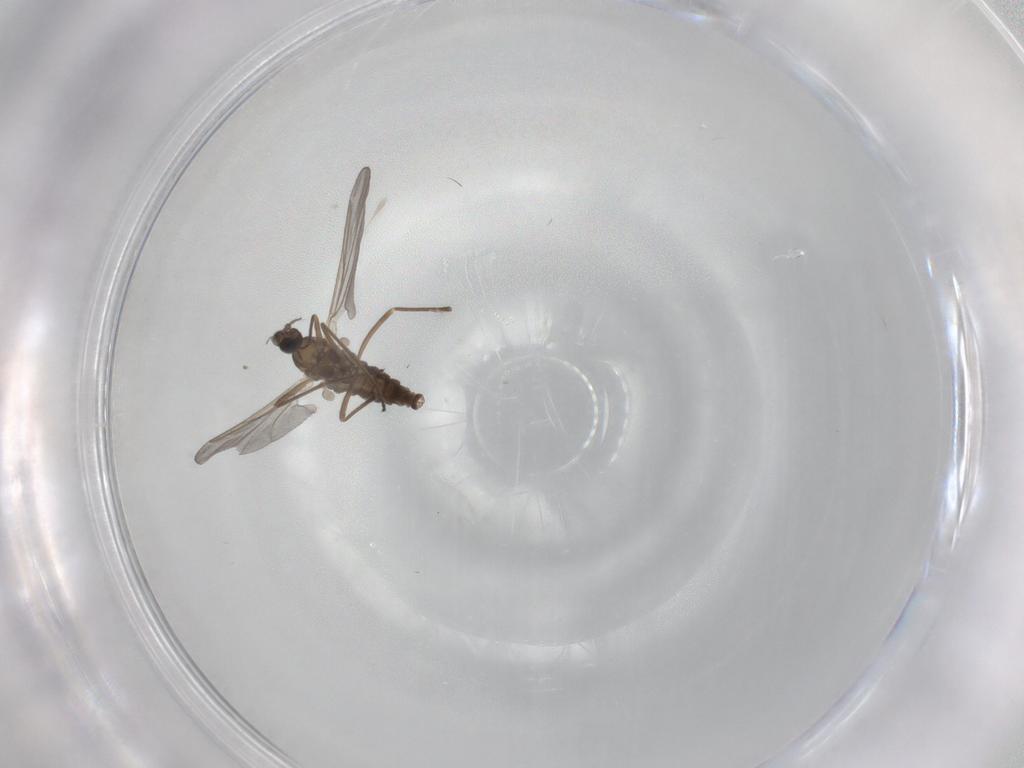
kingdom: Animalia
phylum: Arthropoda
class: Insecta
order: Diptera
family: Cecidomyiidae
